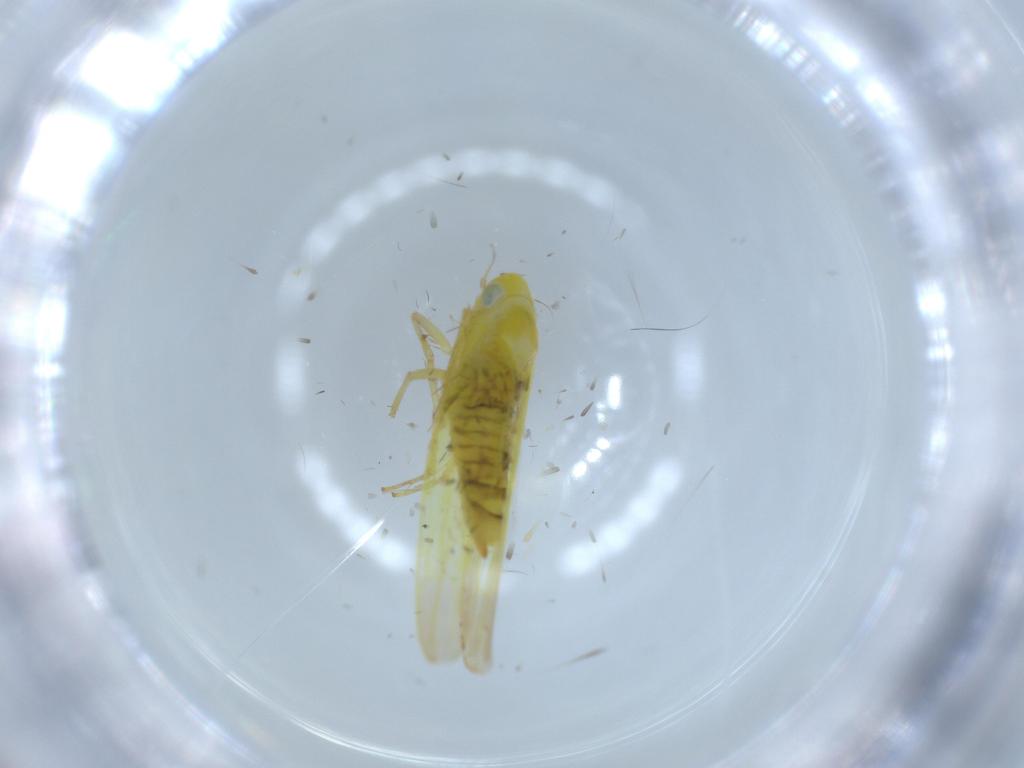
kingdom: Animalia
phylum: Arthropoda
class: Insecta
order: Hemiptera
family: Cicadellidae
